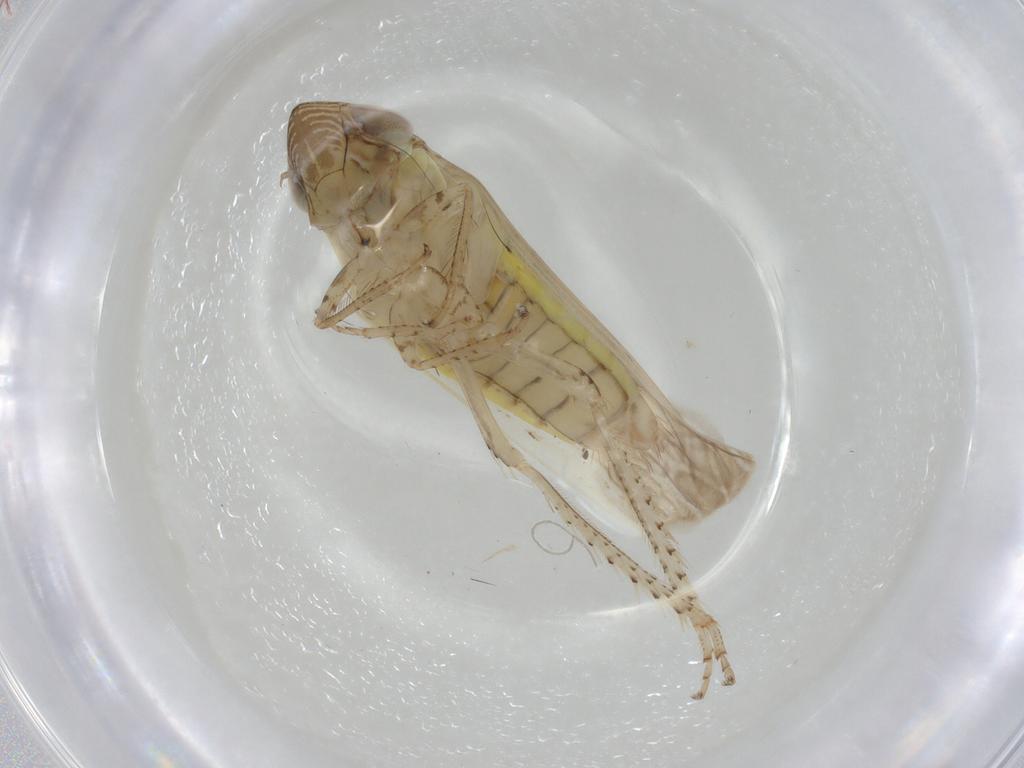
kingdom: Animalia
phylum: Arthropoda
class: Insecta
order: Hemiptera
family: Cicadellidae
